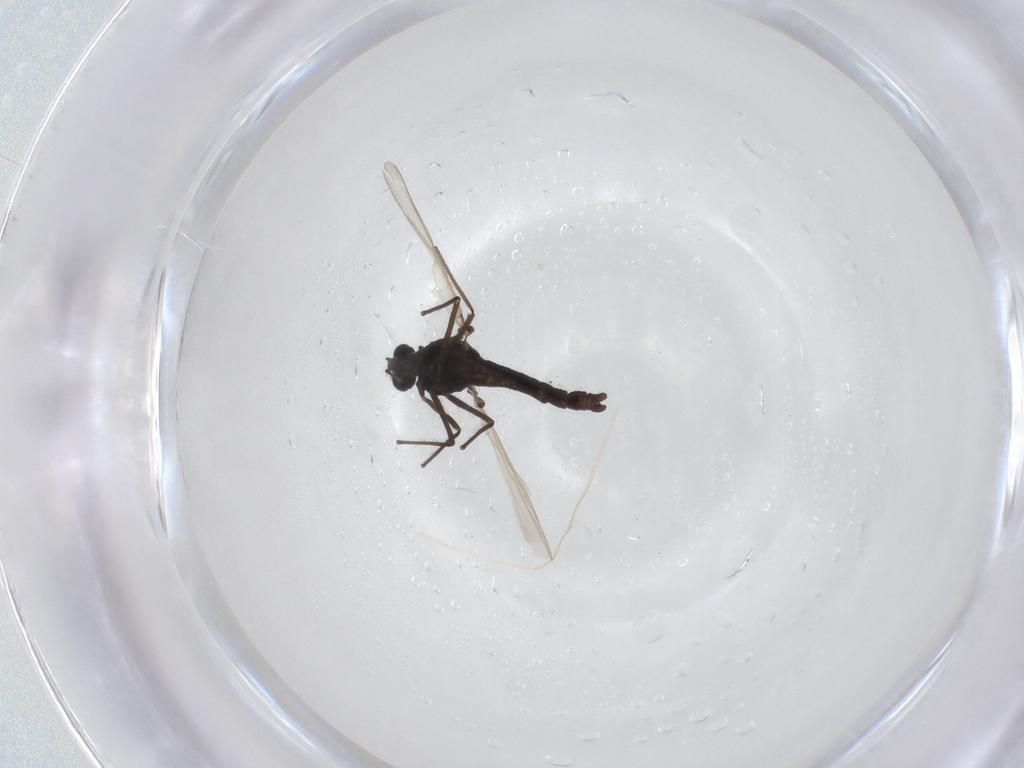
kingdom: Animalia
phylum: Arthropoda
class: Insecta
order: Diptera
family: Chironomidae
